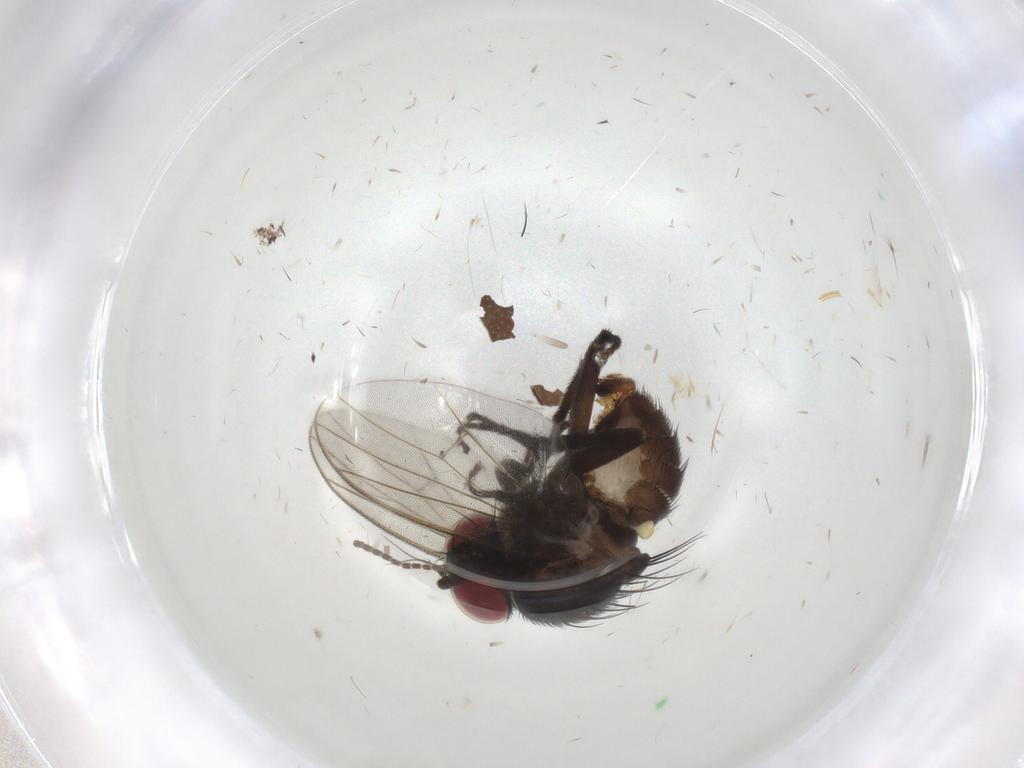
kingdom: Animalia
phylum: Arthropoda
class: Insecta
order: Diptera
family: Agromyzidae
